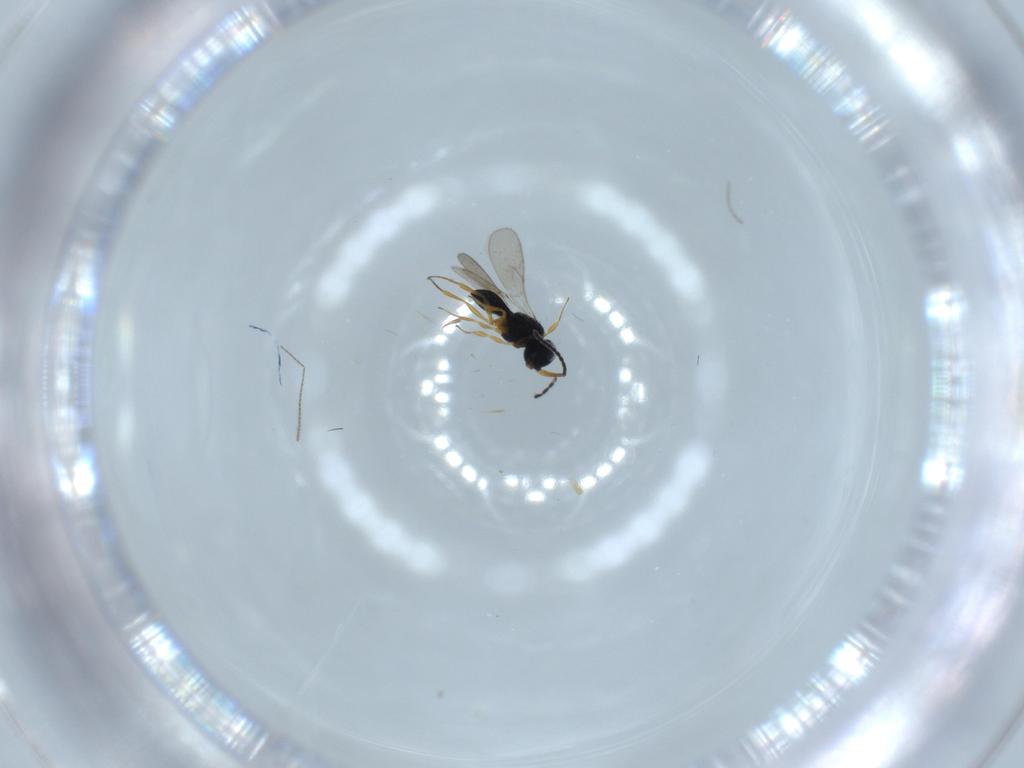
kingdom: Animalia
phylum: Arthropoda
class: Insecta
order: Hymenoptera
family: Scelionidae
